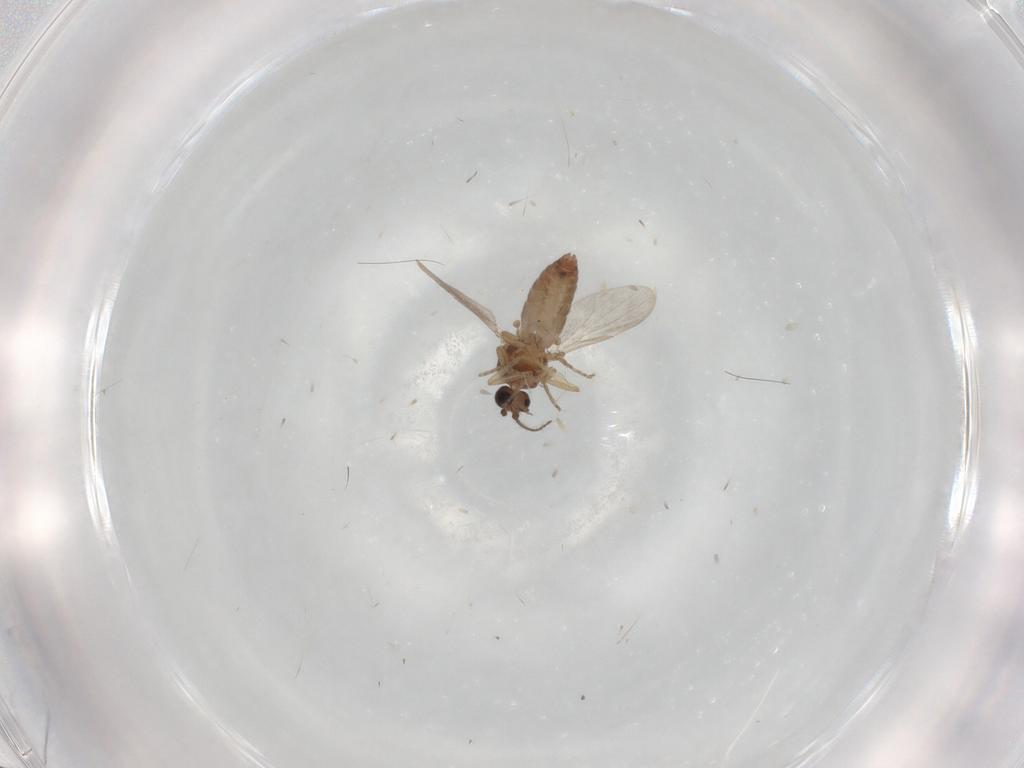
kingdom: Animalia
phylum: Arthropoda
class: Insecta
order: Diptera
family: Ceratopogonidae
